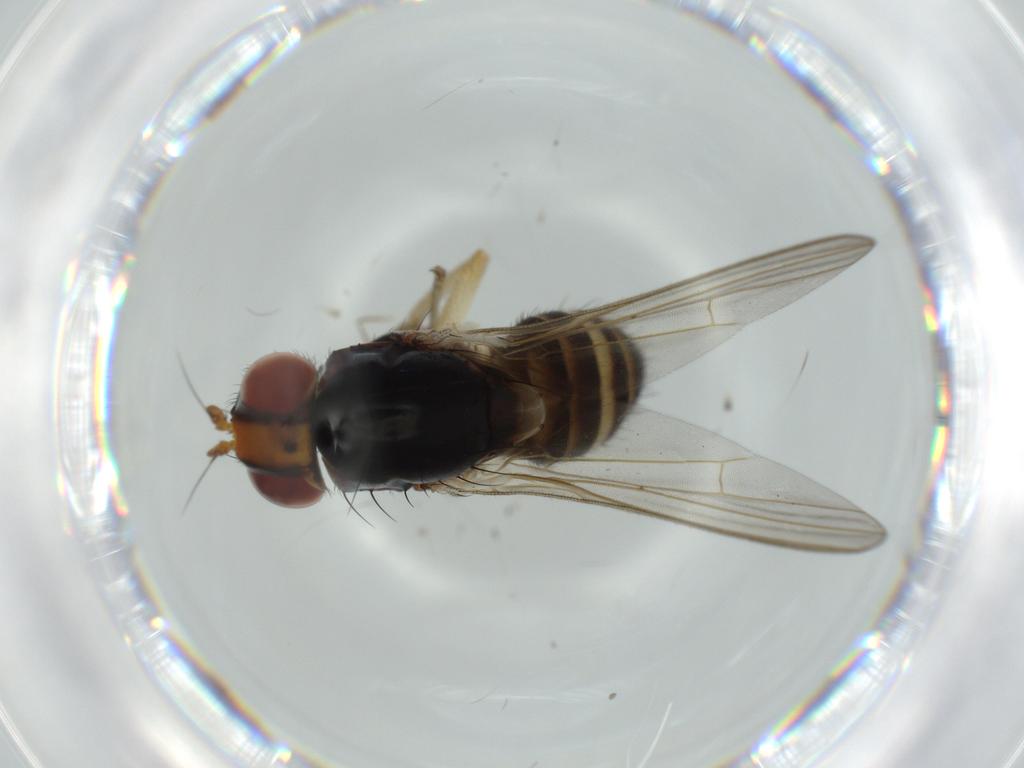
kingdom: Animalia
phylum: Arthropoda
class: Insecta
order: Diptera
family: Lauxaniidae
